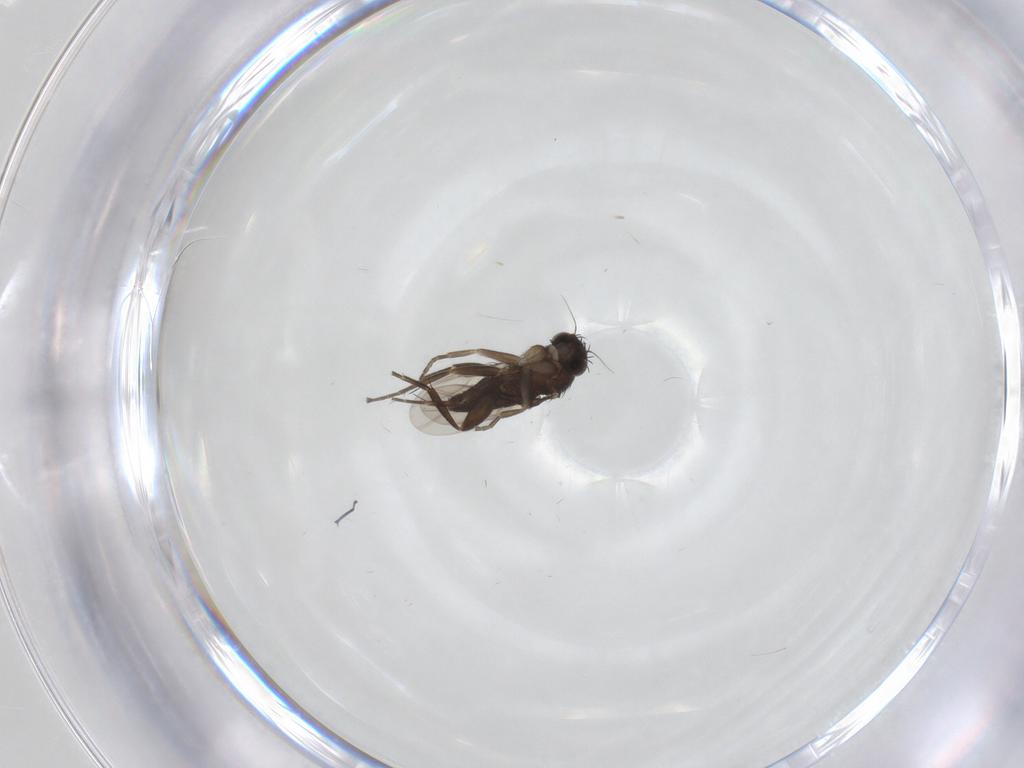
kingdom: Animalia
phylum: Arthropoda
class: Insecta
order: Diptera
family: Phoridae
